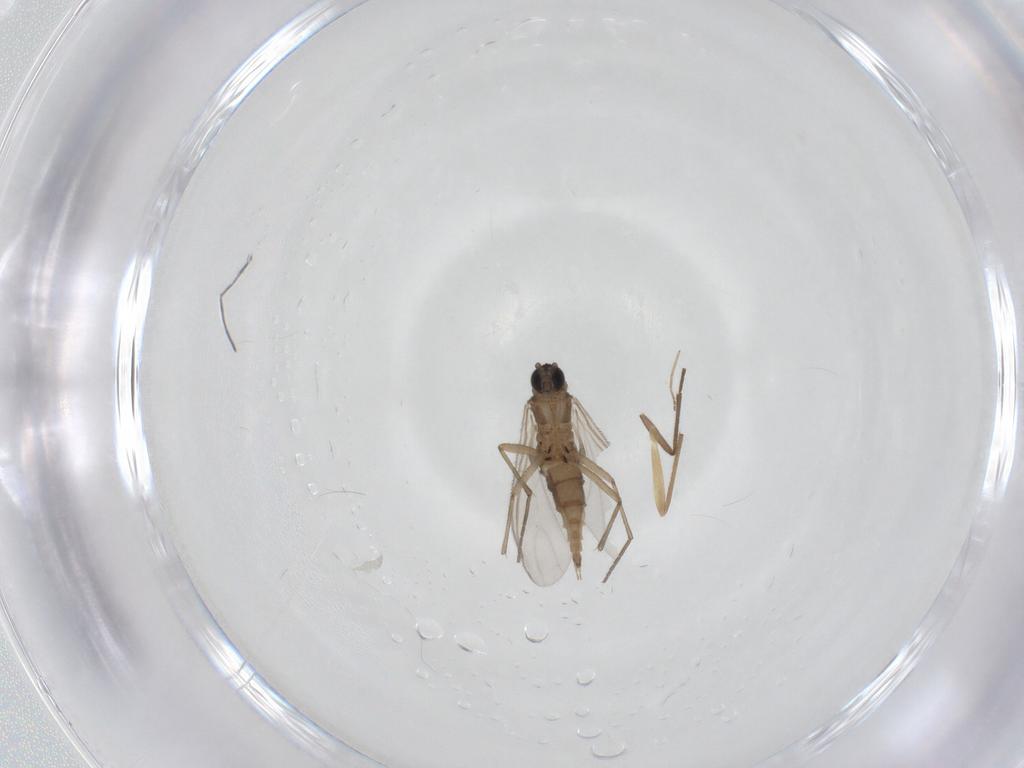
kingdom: Animalia
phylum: Arthropoda
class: Insecta
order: Diptera
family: Sciaridae
